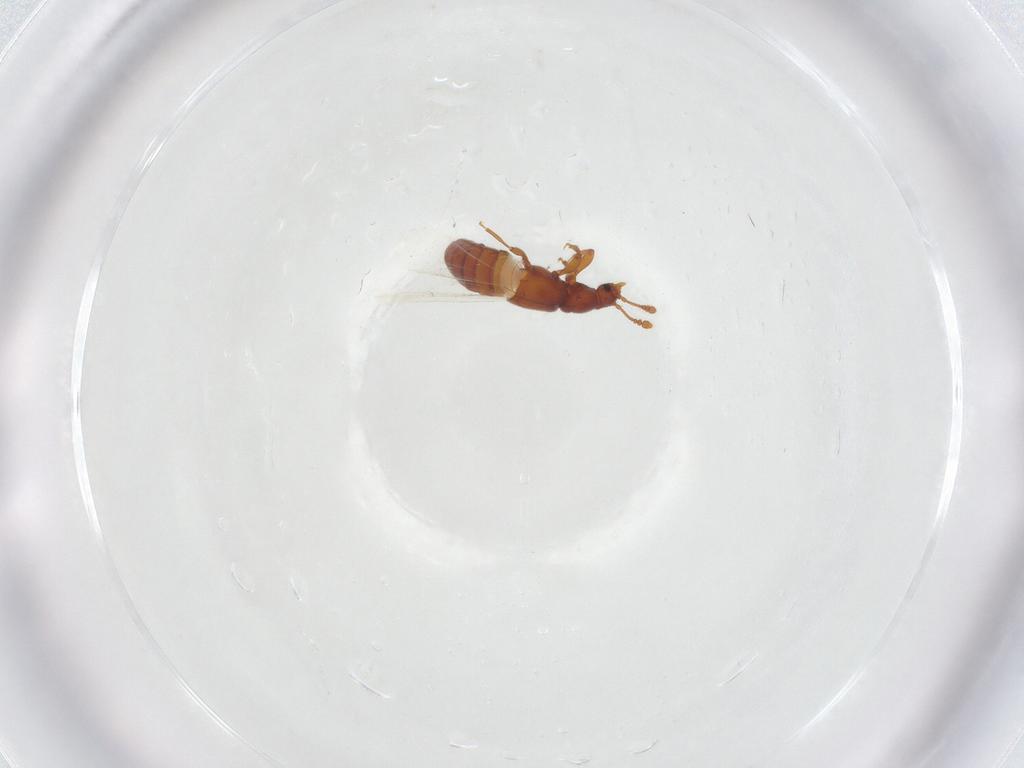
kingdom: Animalia
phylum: Arthropoda
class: Insecta
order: Coleoptera
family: Staphylinidae
